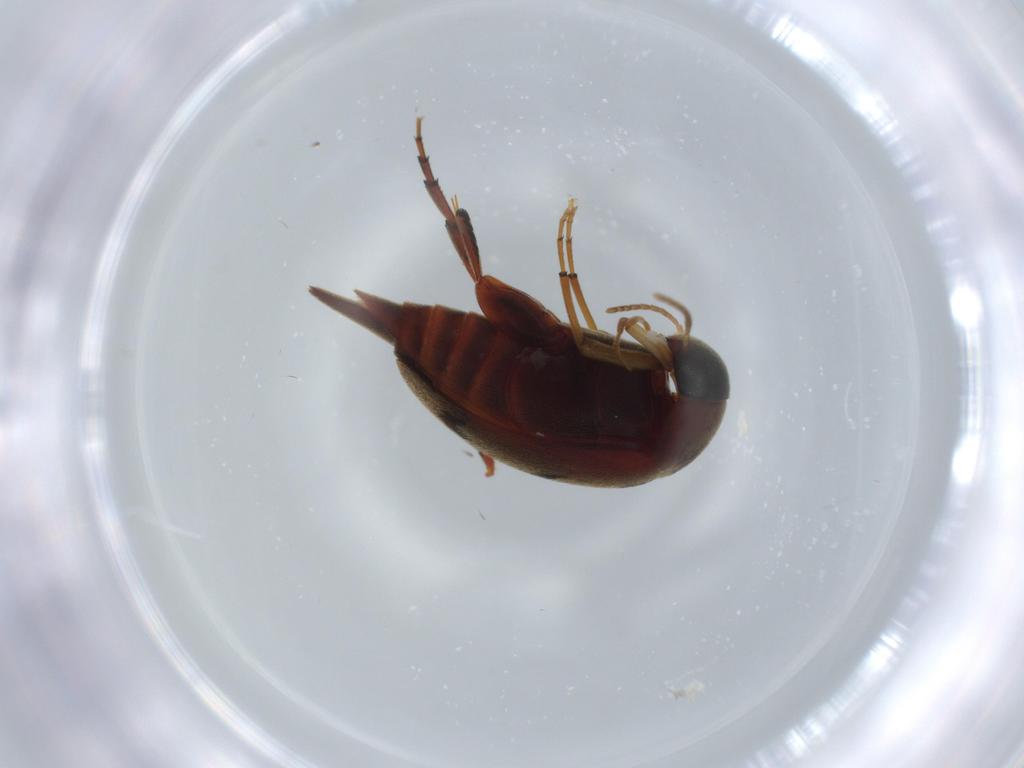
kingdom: Animalia
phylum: Arthropoda
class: Insecta
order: Coleoptera
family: Mordellidae
